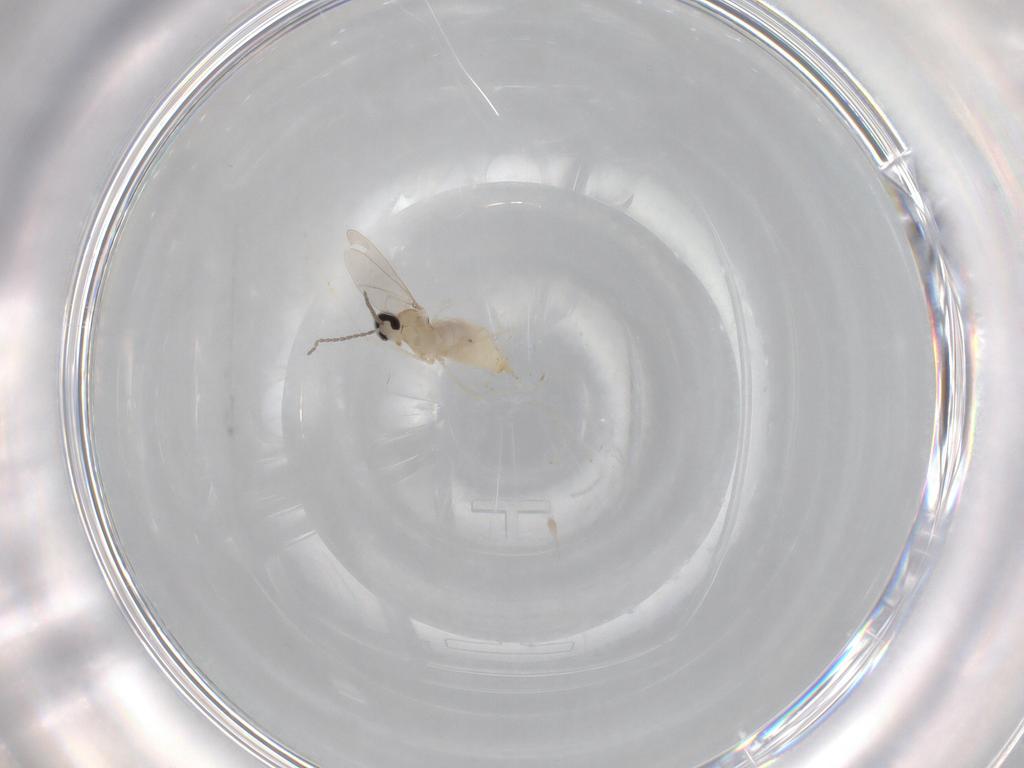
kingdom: Animalia
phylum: Arthropoda
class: Insecta
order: Diptera
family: Cecidomyiidae
